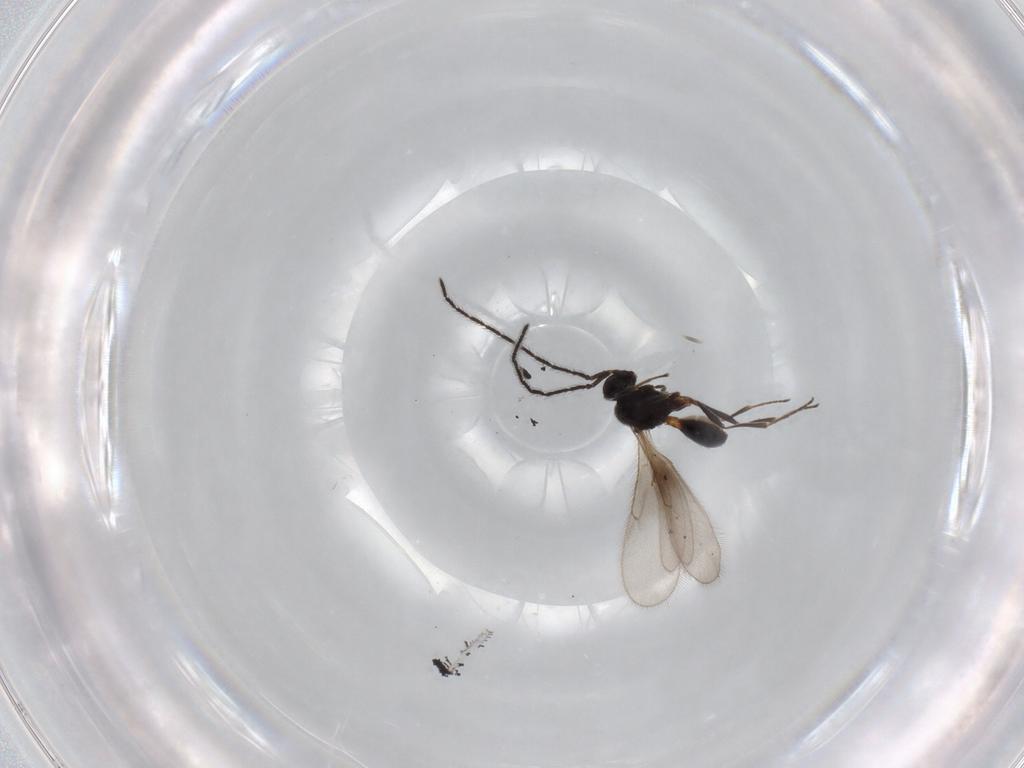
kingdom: Animalia
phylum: Arthropoda
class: Insecta
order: Hymenoptera
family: Scelionidae
